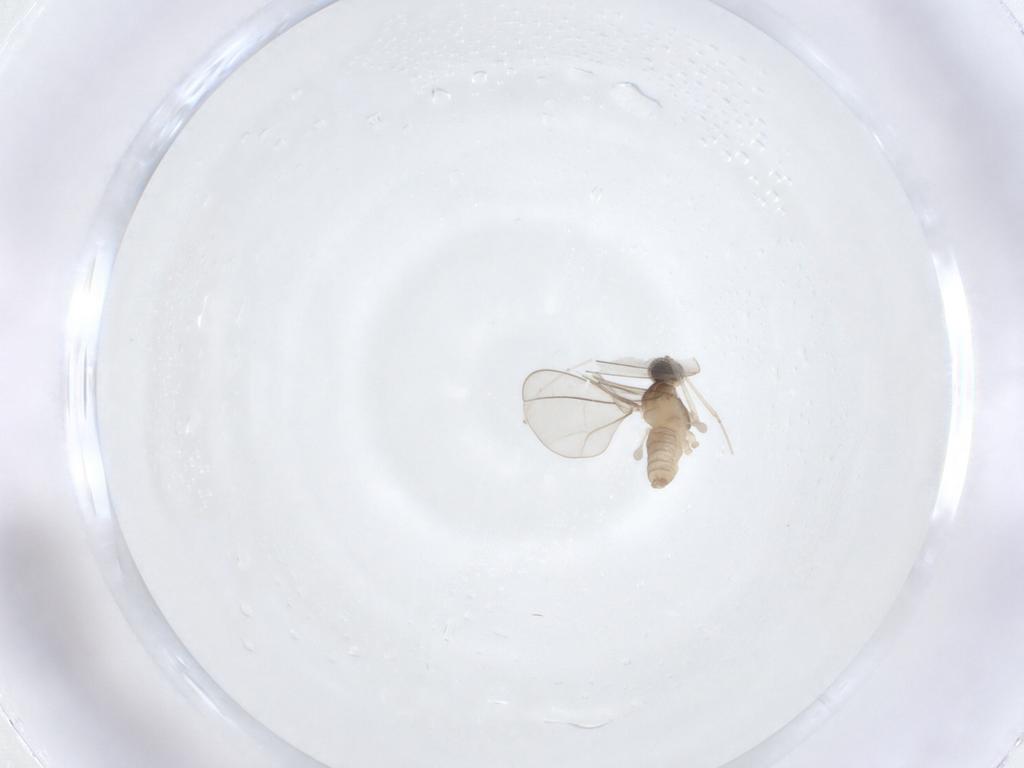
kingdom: Animalia
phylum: Arthropoda
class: Insecta
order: Diptera
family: Cecidomyiidae
